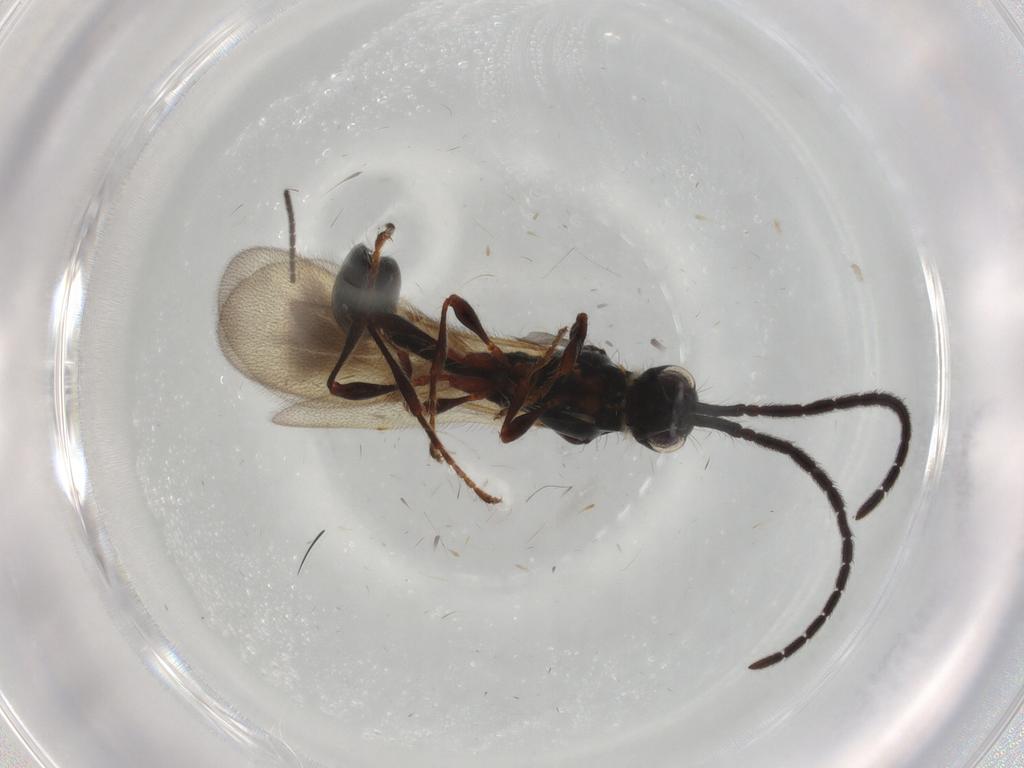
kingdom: Animalia
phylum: Arthropoda
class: Insecta
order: Hymenoptera
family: Diapriidae
